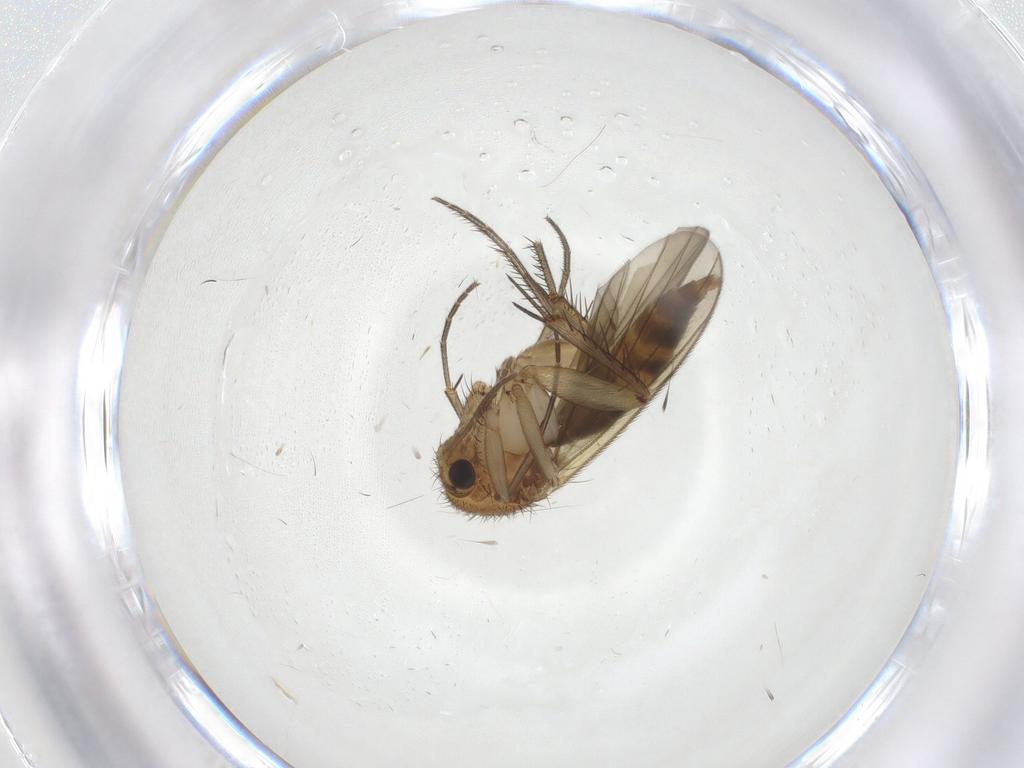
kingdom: Animalia
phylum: Arthropoda
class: Insecta
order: Diptera
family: Mycetophilidae
